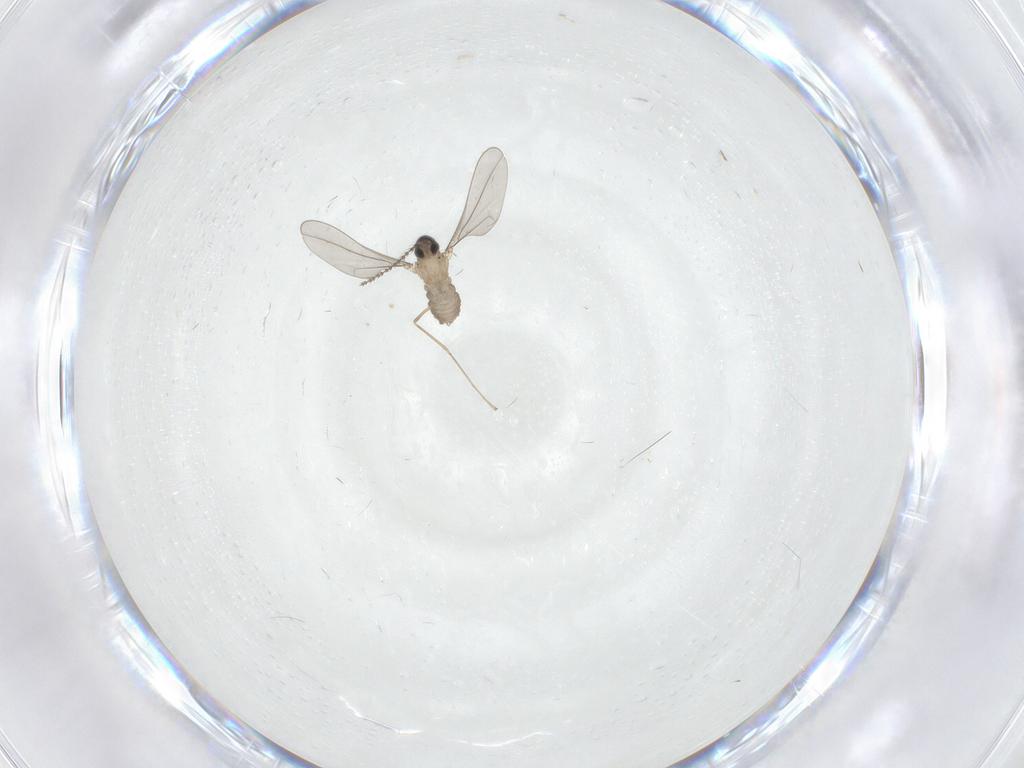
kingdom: Animalia
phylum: Arthropoda
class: Insecta
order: Diptera
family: Cecidomyiidae
